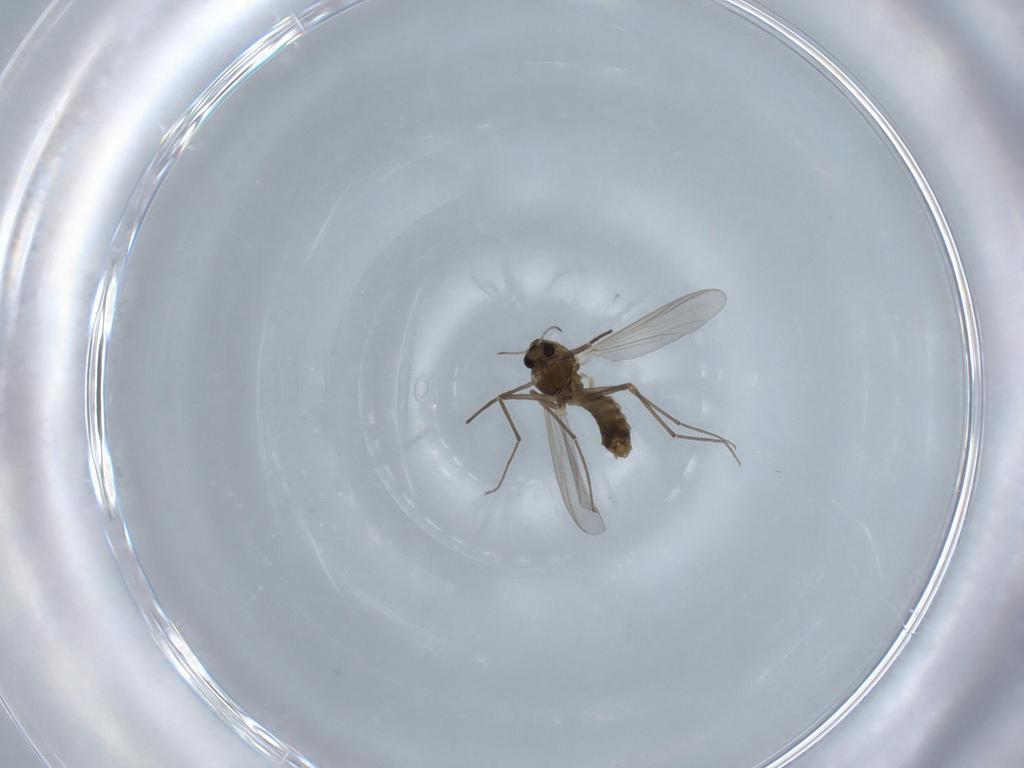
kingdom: Animalia
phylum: Arthropoda
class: Insecta
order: Diptera
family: Chironomidae
